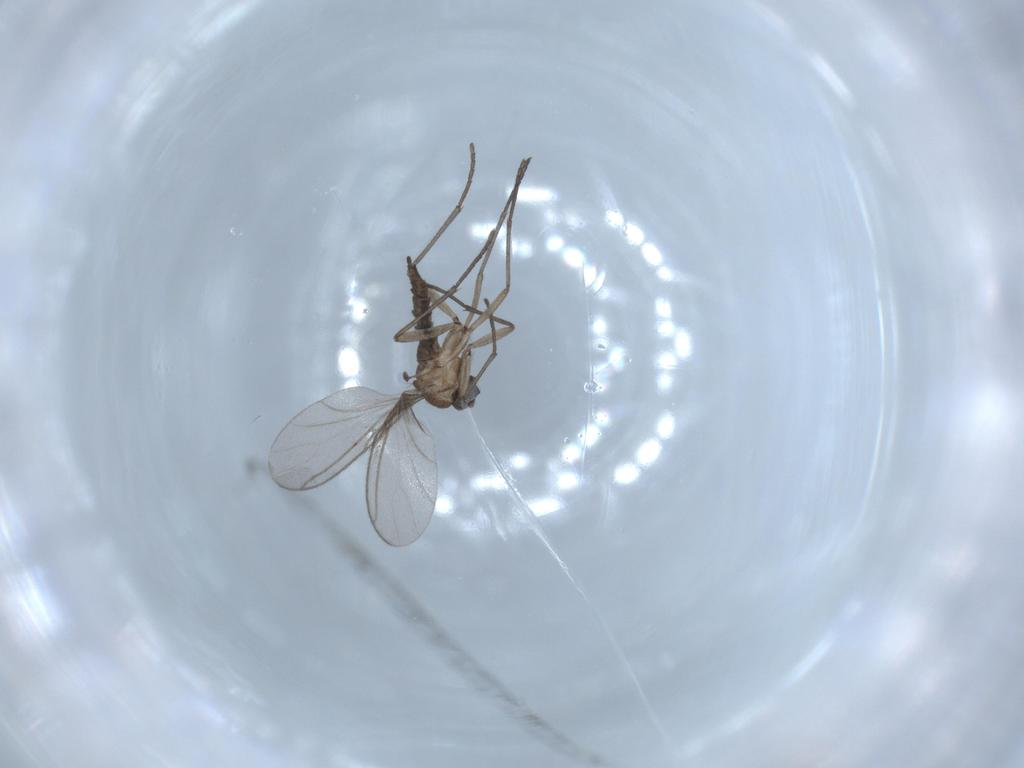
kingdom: Animalia
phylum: Arthropoda
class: Insecta
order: Diptera
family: Sciaridae
